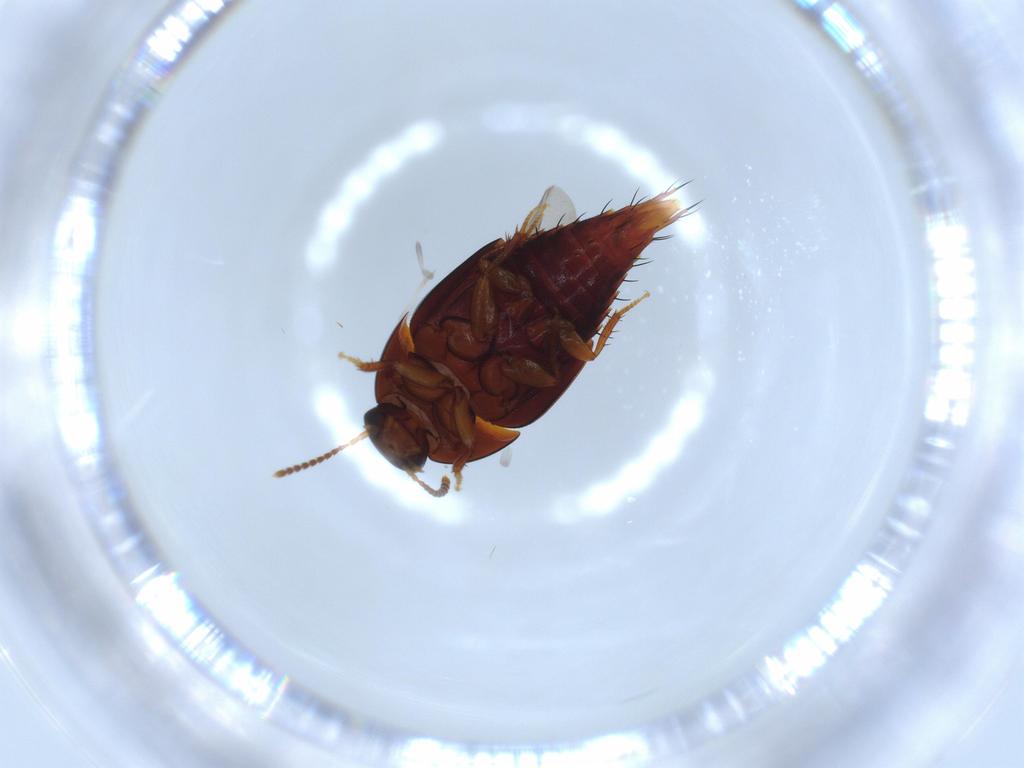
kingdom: Animalia
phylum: Arthropoda
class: Insecta
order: Coleoptera
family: Staphylinidae
